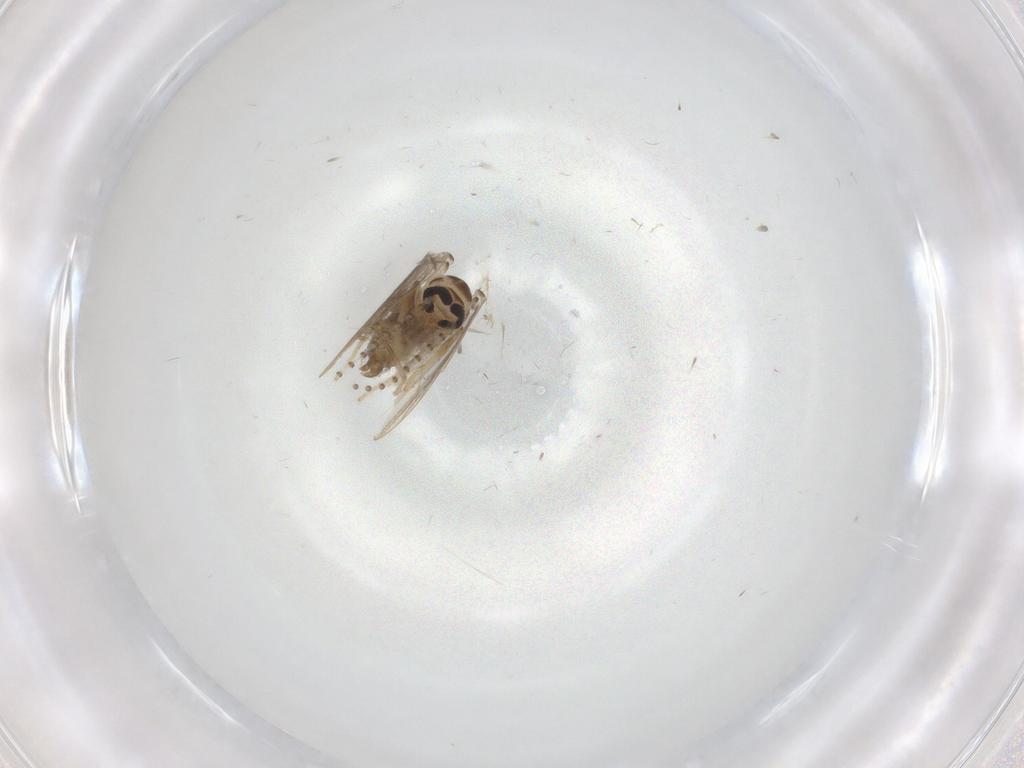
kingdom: Animalia
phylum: Arthropoda
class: Insecta
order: Diptera
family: Psychodidae
